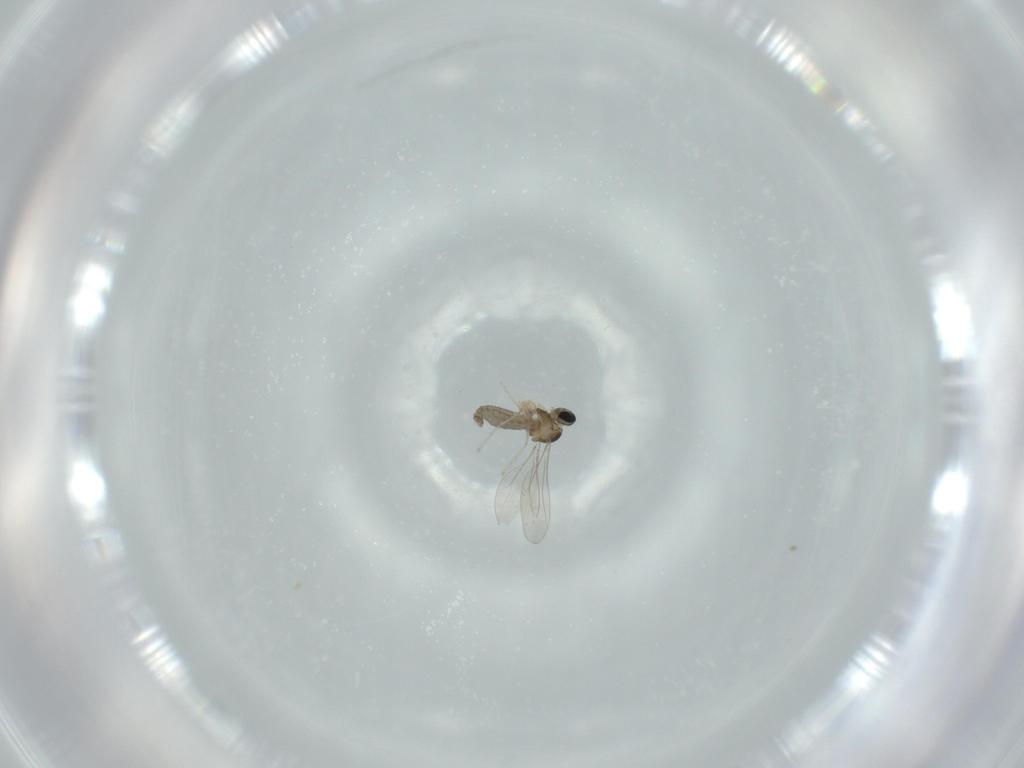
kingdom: Animalia
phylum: Arthropoda
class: Insecta
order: Diptera
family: Cecidomyiidae
